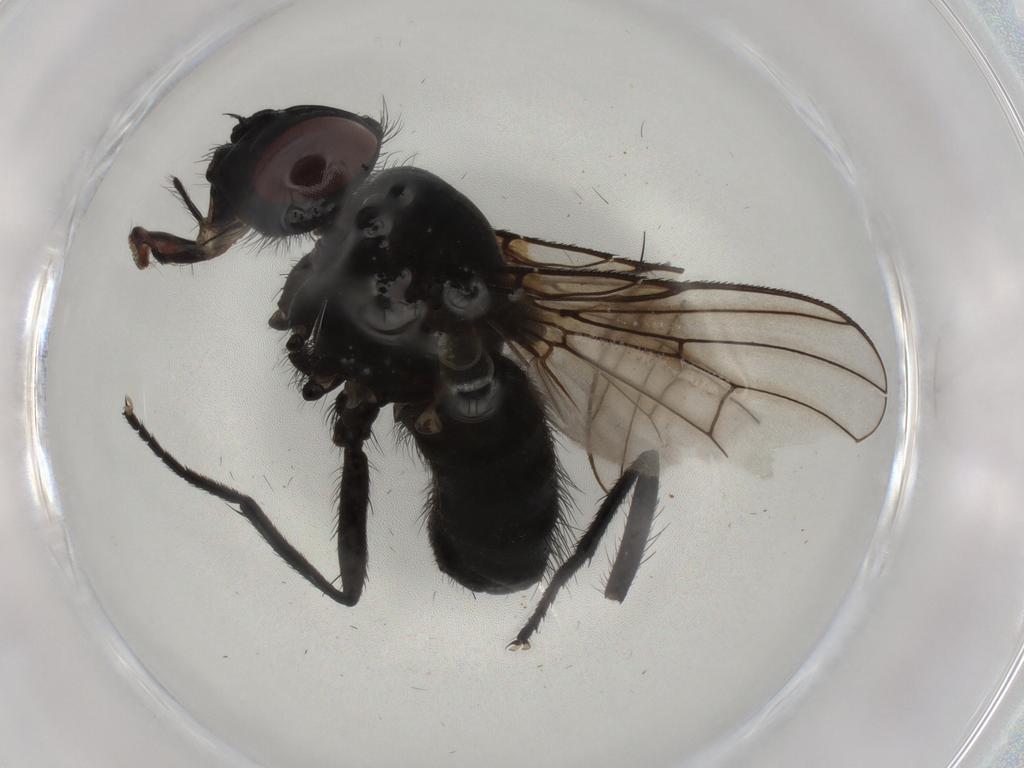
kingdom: Animalia
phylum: Arthropoda
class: Insecta
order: Diptera
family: Muscidae
